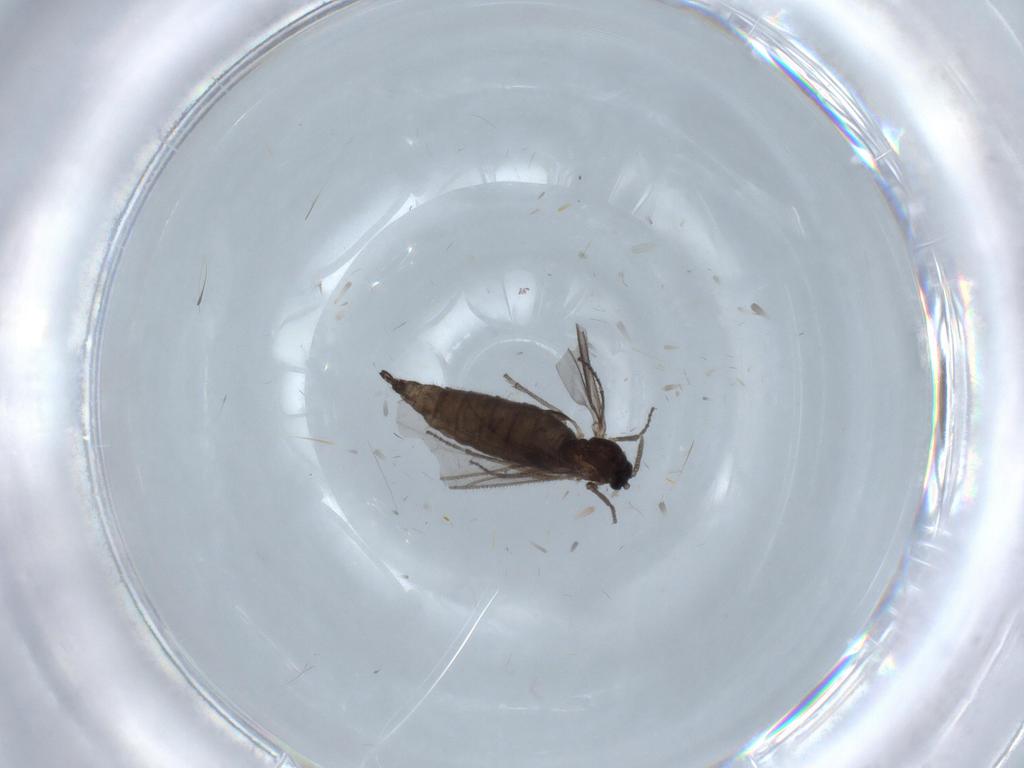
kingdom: Animalia
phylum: Arthropoda
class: Insecta
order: Diptera
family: Sciaridae
